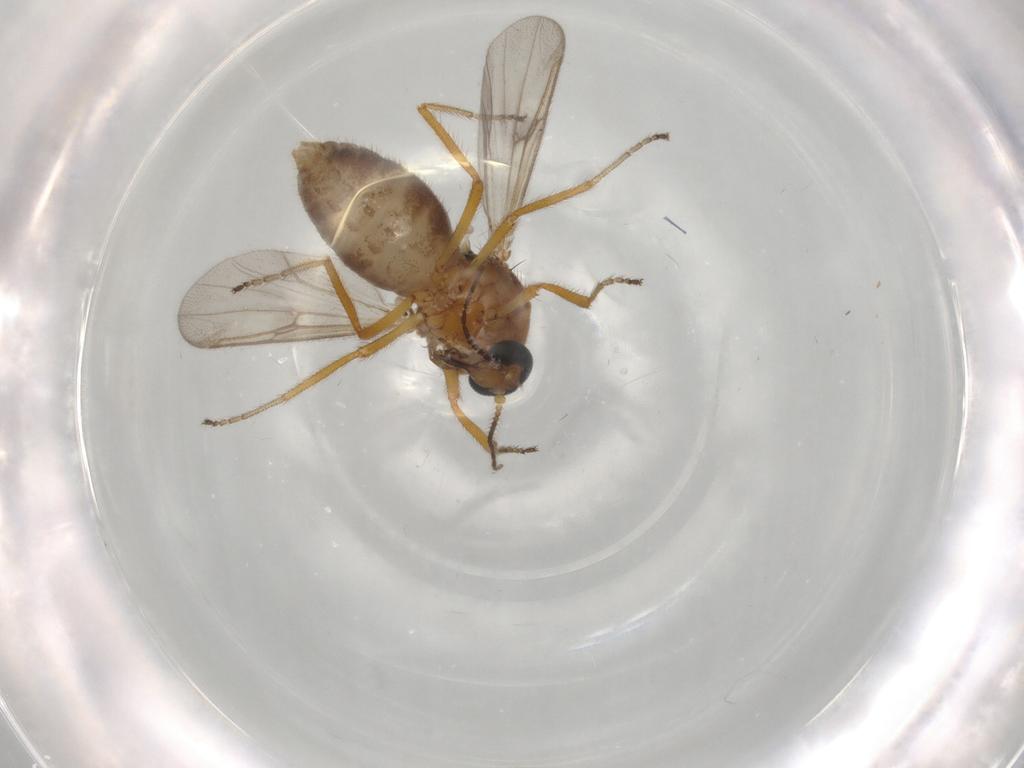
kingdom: Animalia
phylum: Arthropoda
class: Insecta
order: Diptera
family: Ceratopogonidae
